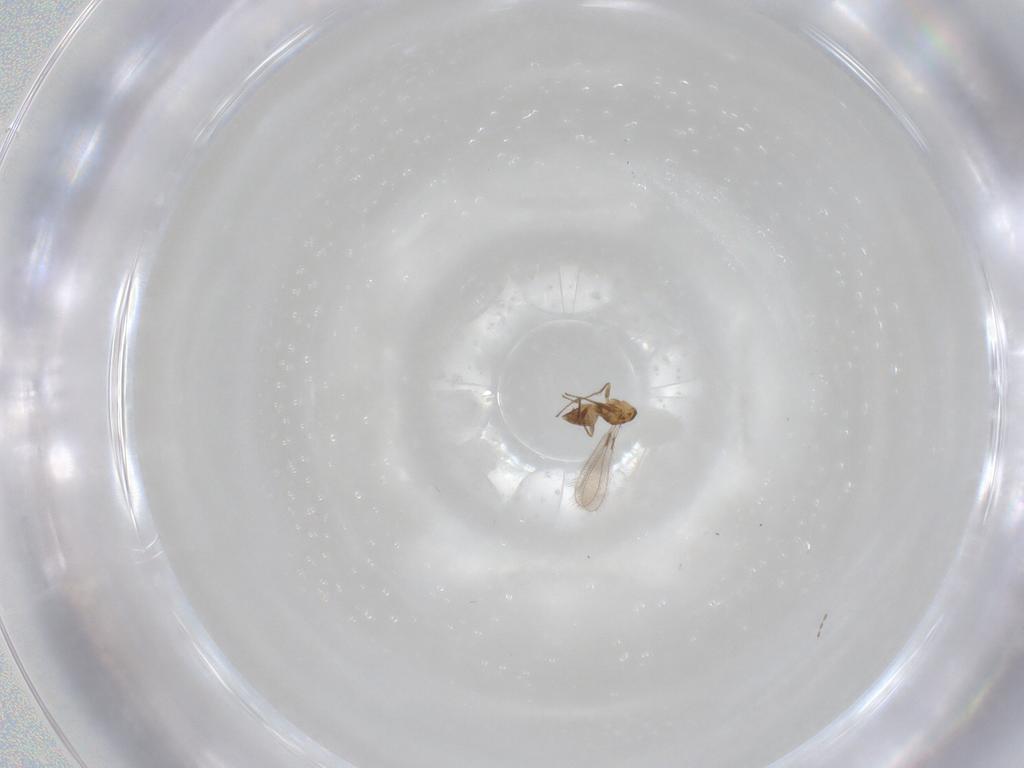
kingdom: Animalia
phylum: Arthropoda
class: Insecta
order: Hymenoptera
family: Mymaridae
